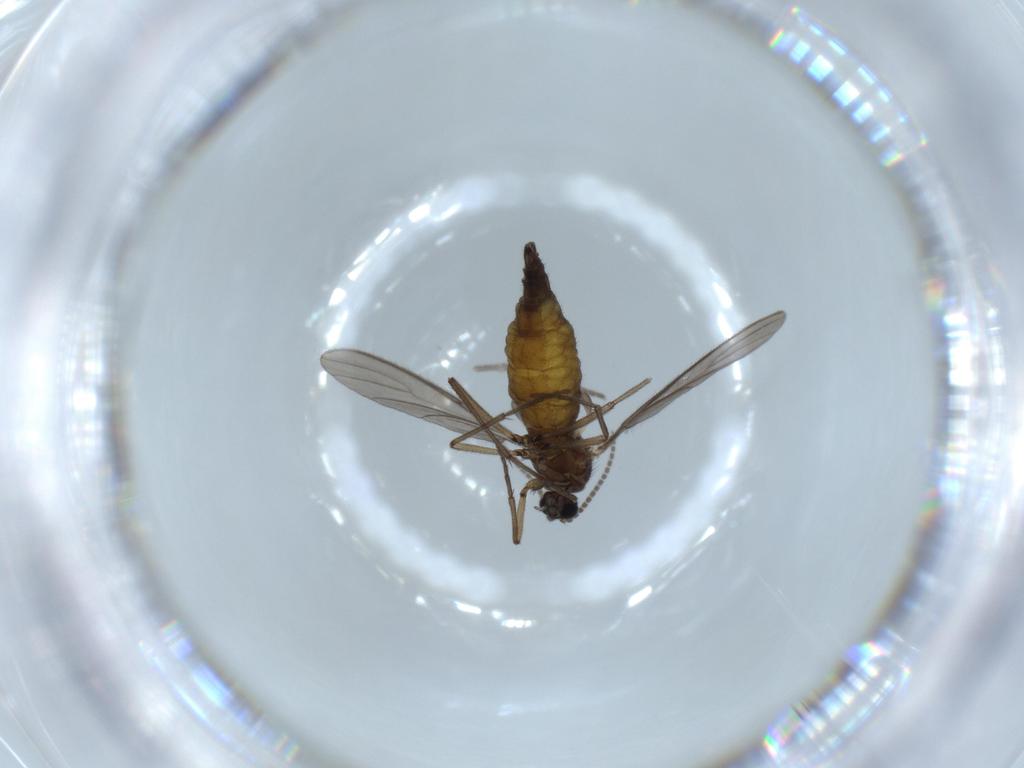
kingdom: Animalia
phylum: Arthropoda
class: Insecta
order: Diptera
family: Sciaridae
